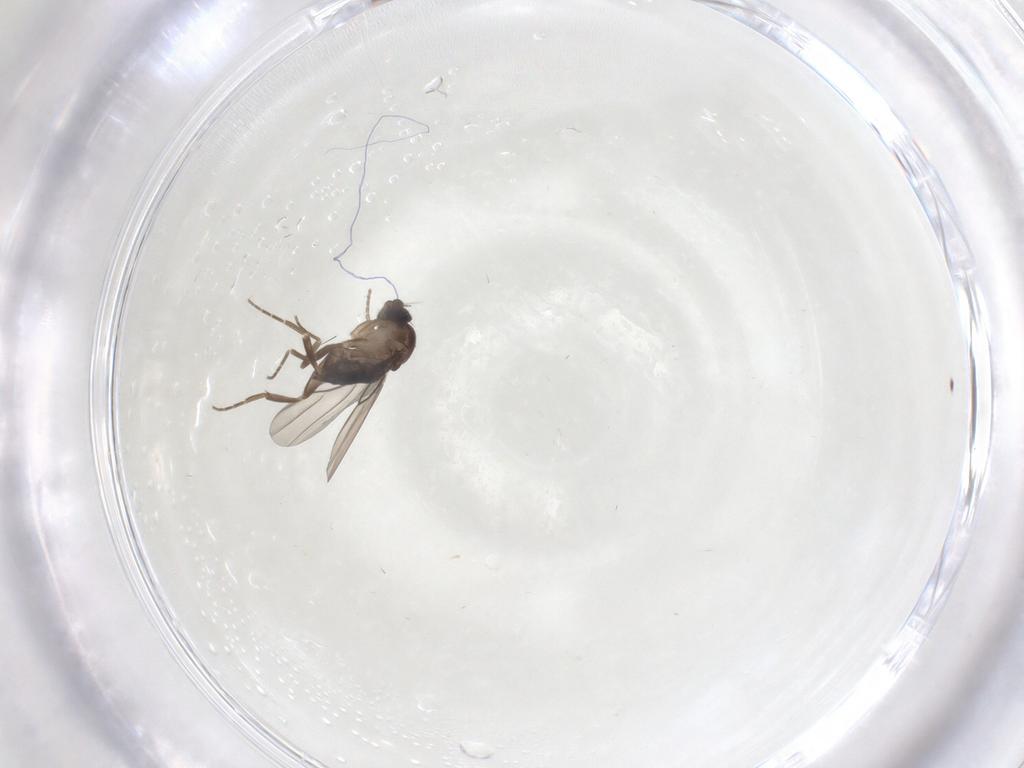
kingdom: Animalia
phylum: Arthropoda
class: Insecta
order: Diptera
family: Phoridae
